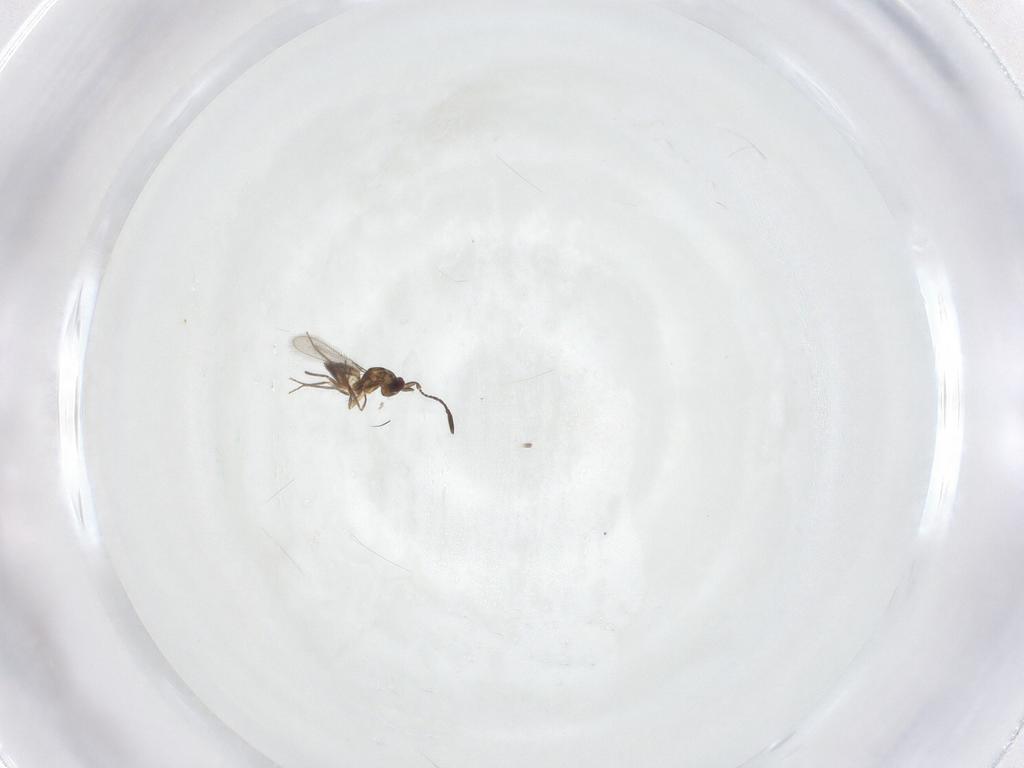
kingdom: Animalia
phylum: Arthropoda
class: Insecta
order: Hymenoptera
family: Mymaridae
